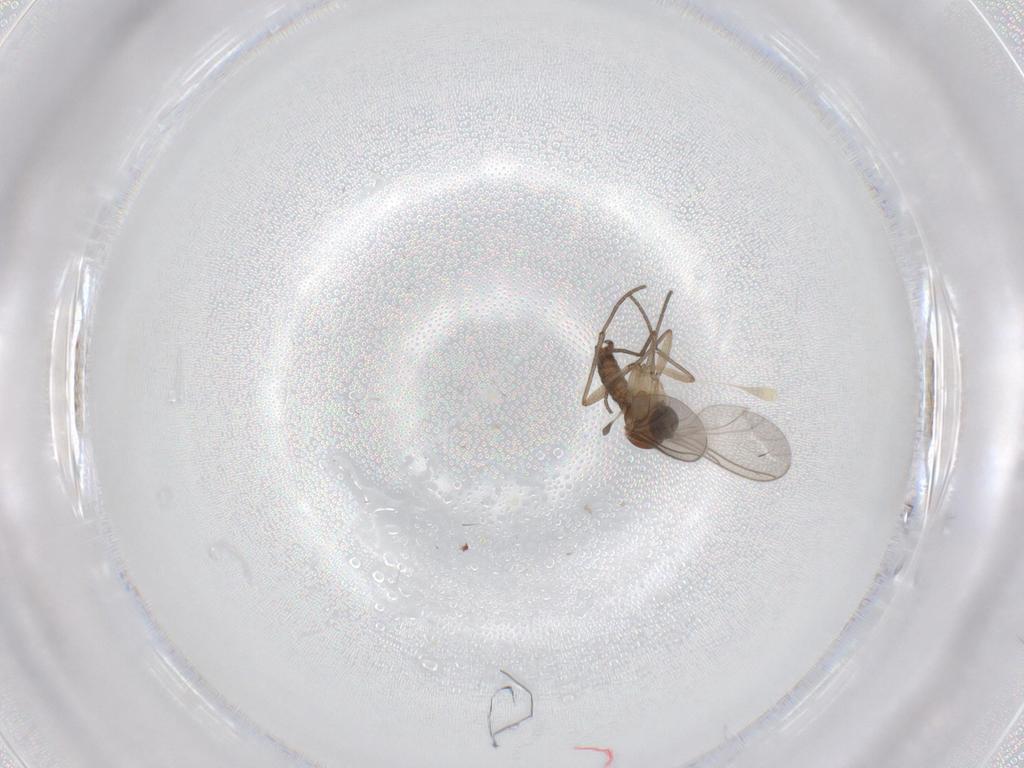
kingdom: Animalia
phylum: Arthropoda
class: Insecta
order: Diptera
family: Sciaridae
